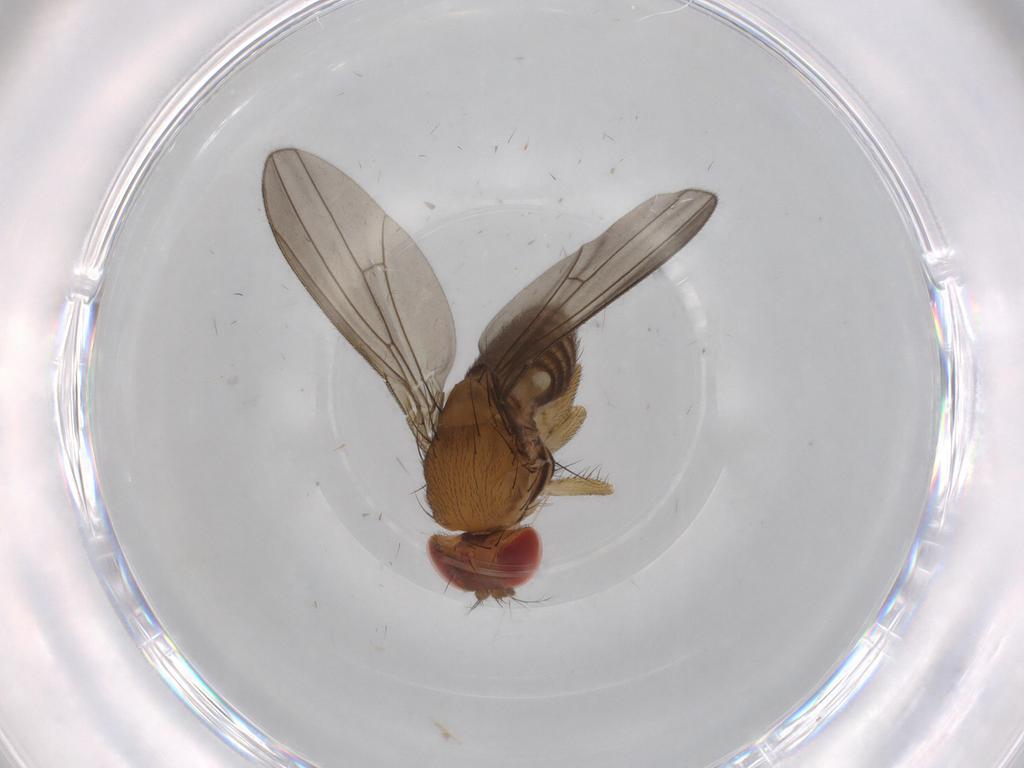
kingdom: Animalia
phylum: Arthropoda
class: Insecta
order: Diptera
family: Drosophilidae
